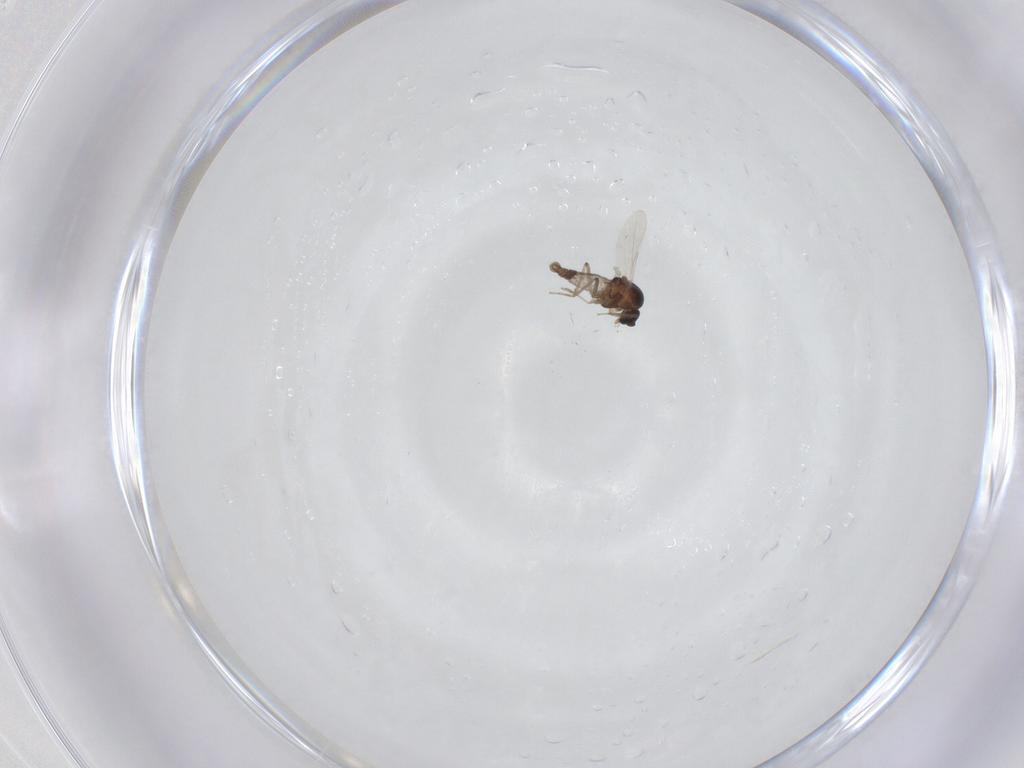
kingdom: Animalia
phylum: Arthropoda
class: Insecta
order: Diptera
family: Ceratopogonidae
